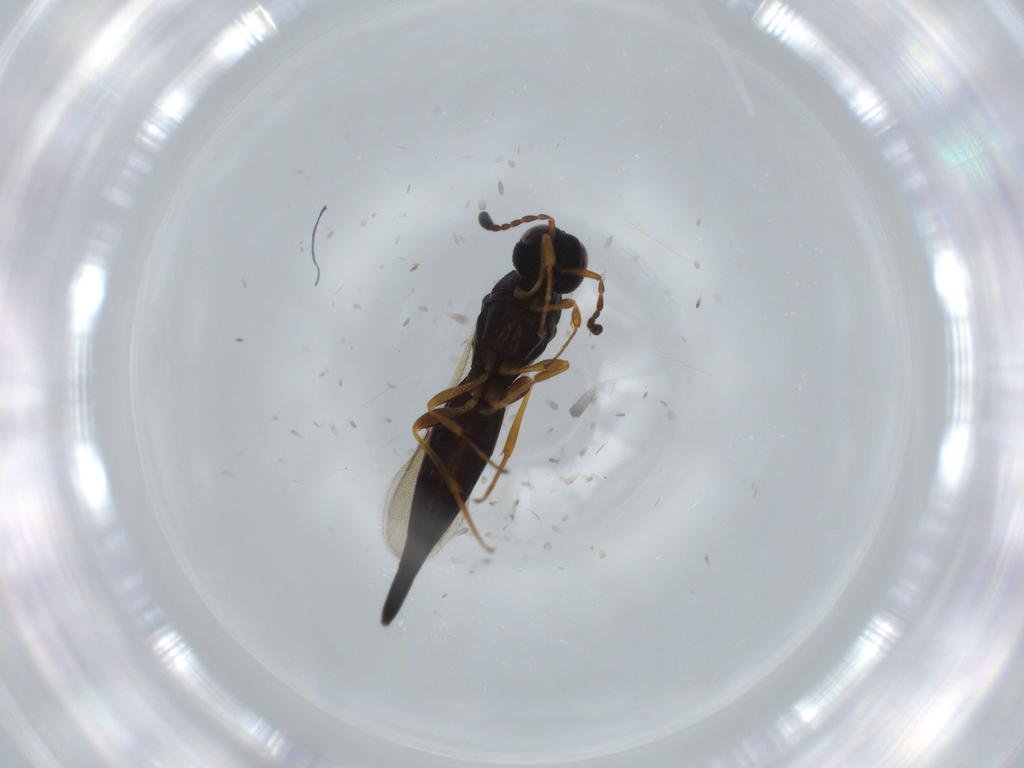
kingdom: Animalia
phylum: Arthropoda
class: Insecta
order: Hymenoptera
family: Scelionidae
